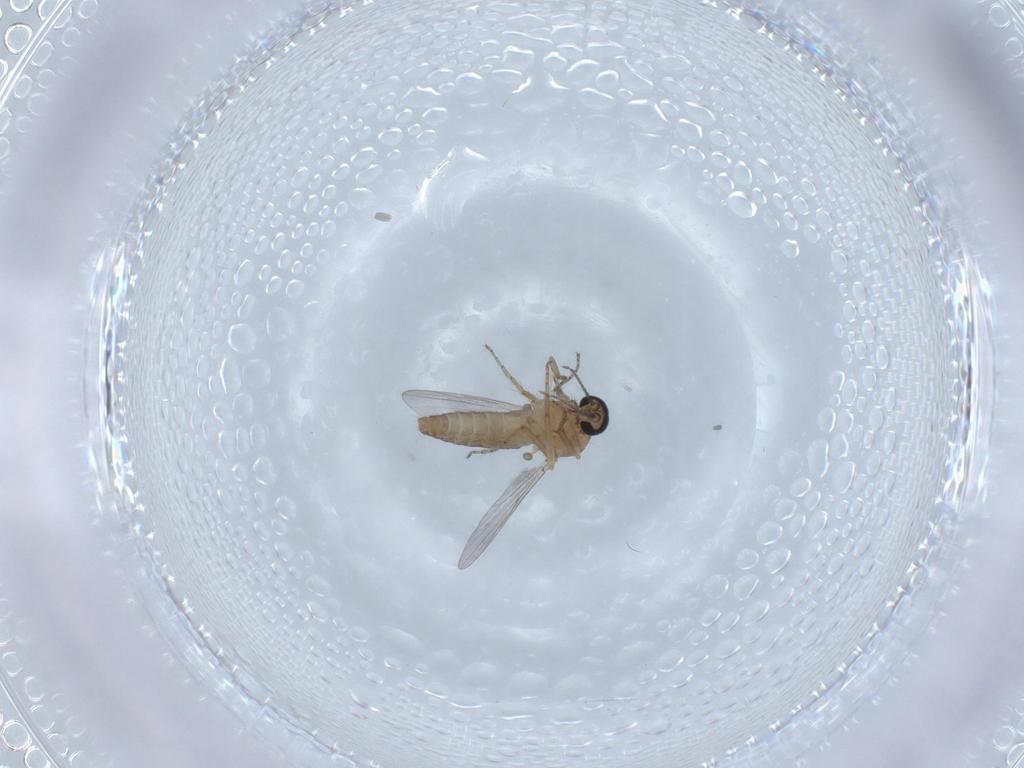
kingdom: Animalia
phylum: Arthropoda
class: Insecta
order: Diptera
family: Ceratopogonidae
